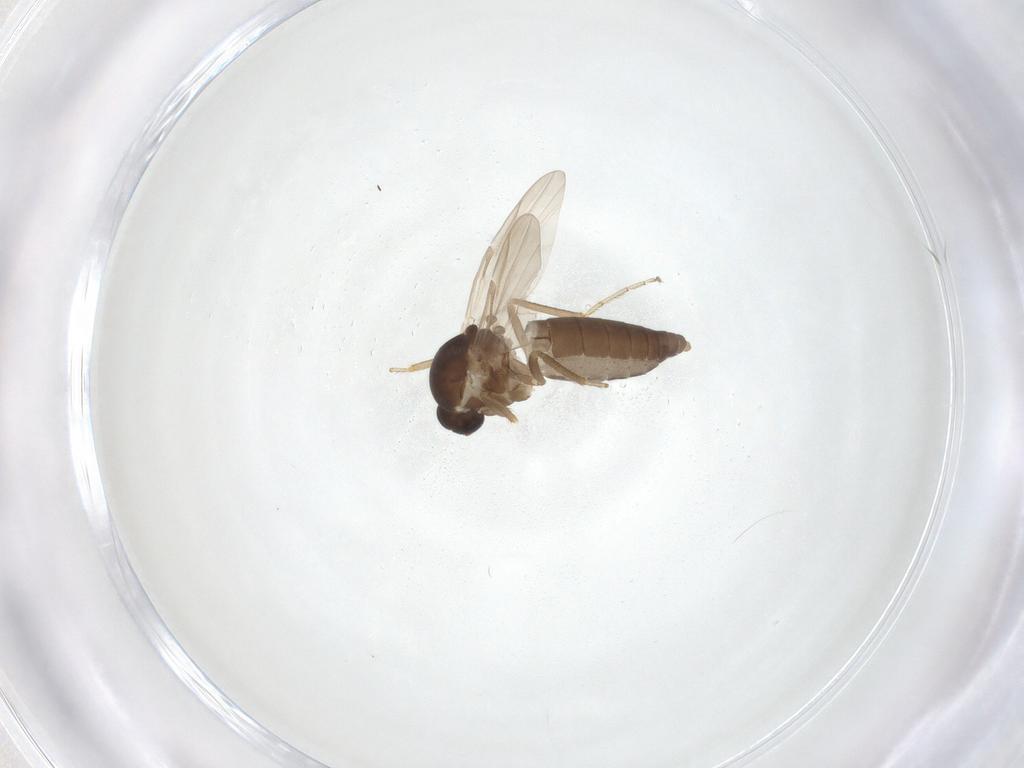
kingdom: Animalia
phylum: Arthropoda
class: Insecta
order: Diptera
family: Ceratopogonidae
